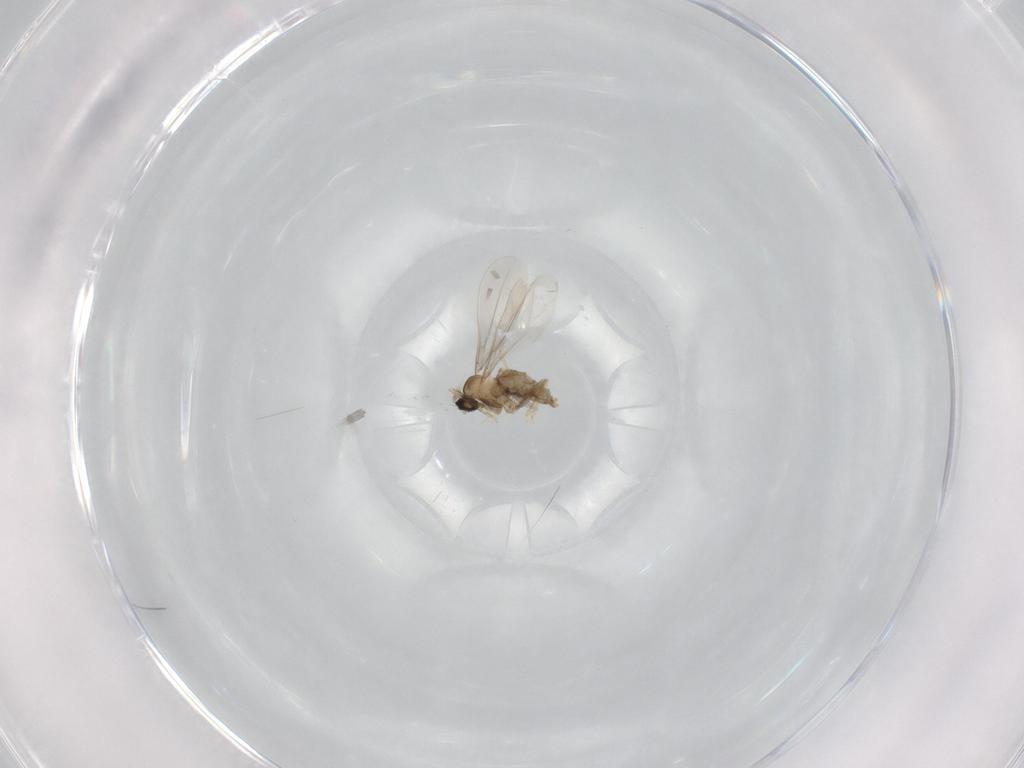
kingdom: Animalia
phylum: Arthropoda
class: Insecta
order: Diptera
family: Cecidomyiidae
